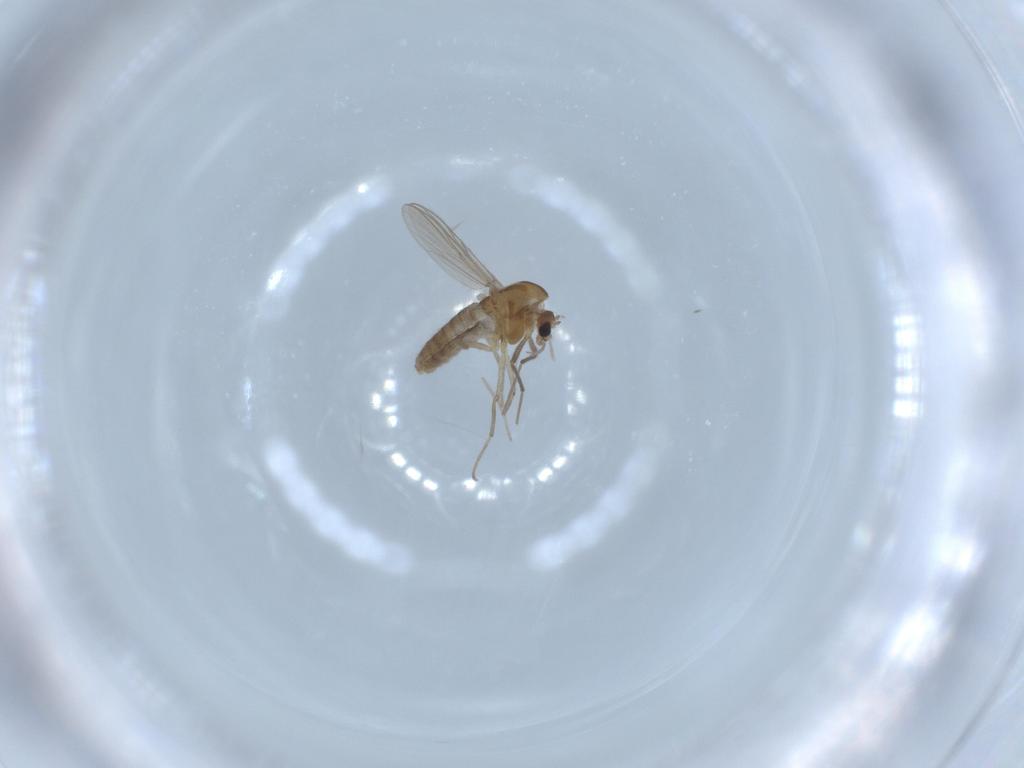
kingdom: Animalia
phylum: Arthropoda
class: Insecta
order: Diptera
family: Chironomidae
